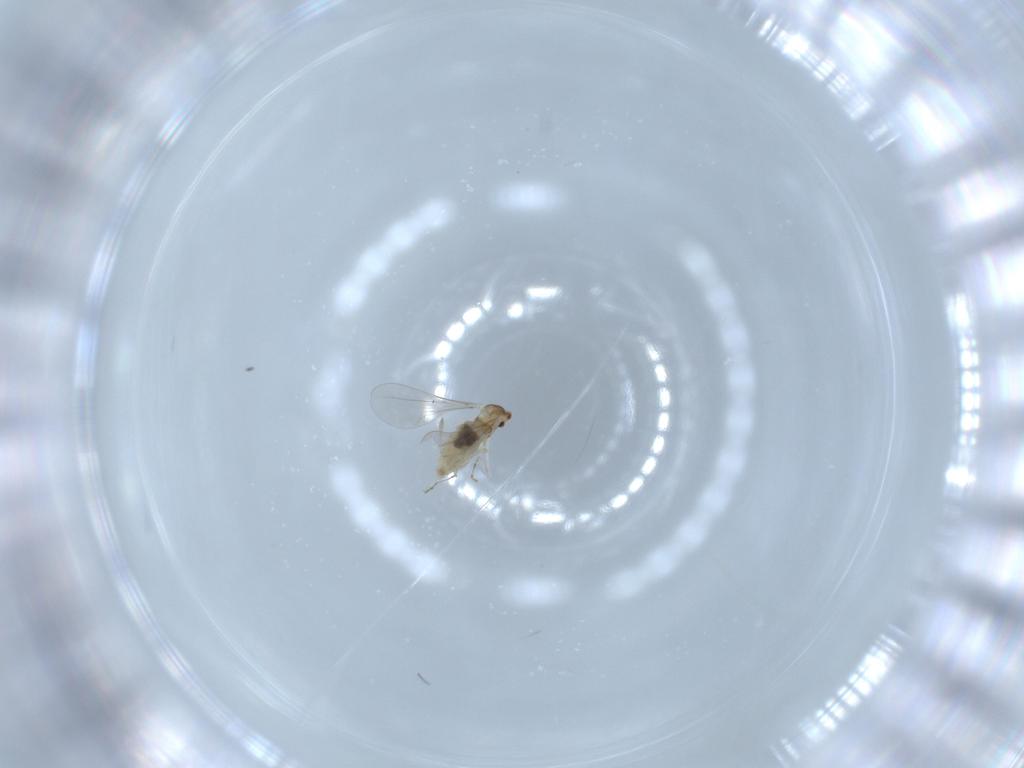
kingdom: Animalia
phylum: Arthropoda
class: Insecta
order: Diptera
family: Cecidomyiidae
